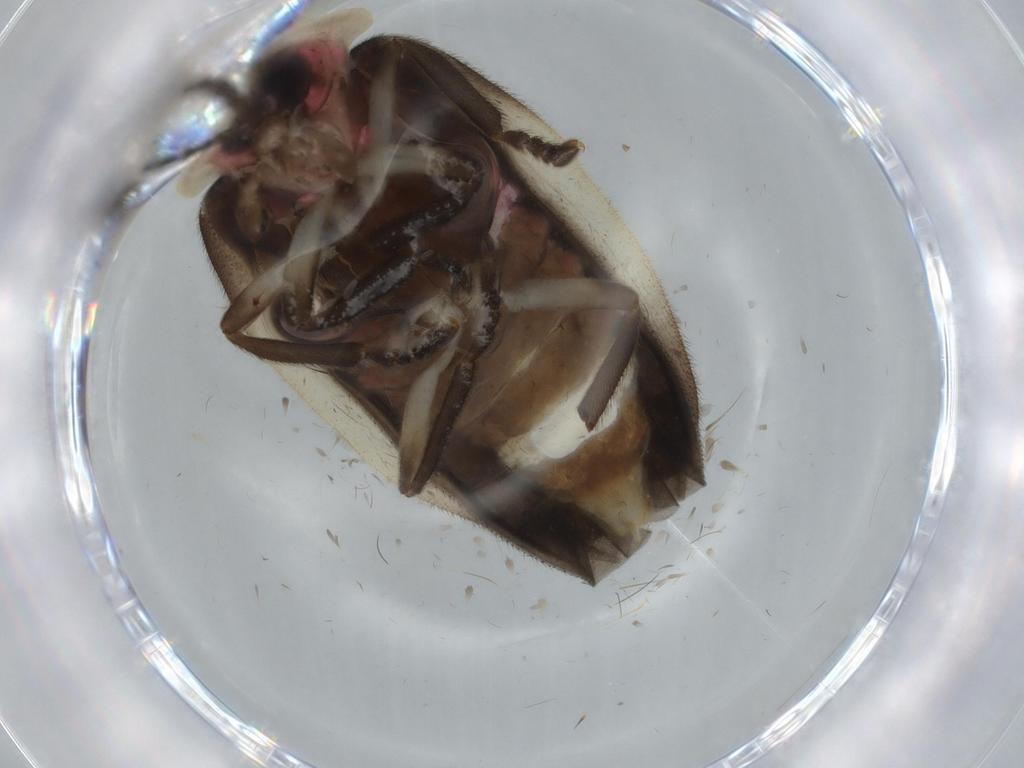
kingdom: Animalia
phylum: Arthropoda
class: Insecta
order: Coleoptera
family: Lampyridae
